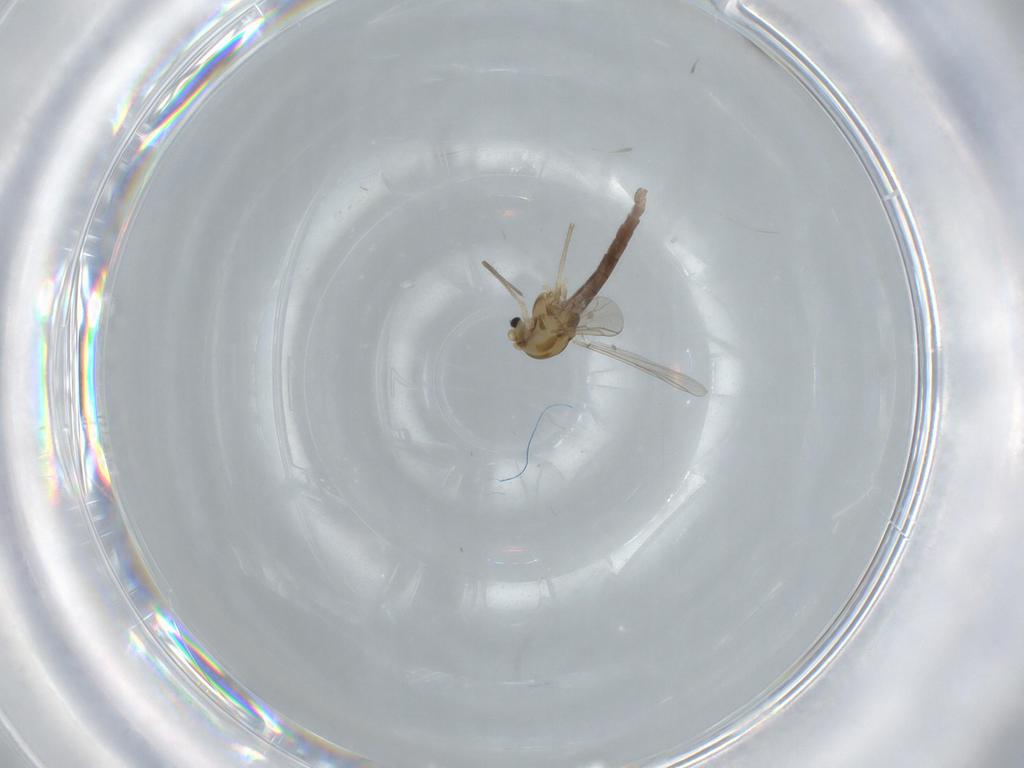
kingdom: Animalia
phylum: Arthropoda
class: Insecta
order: Diptera
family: Chironomidae
